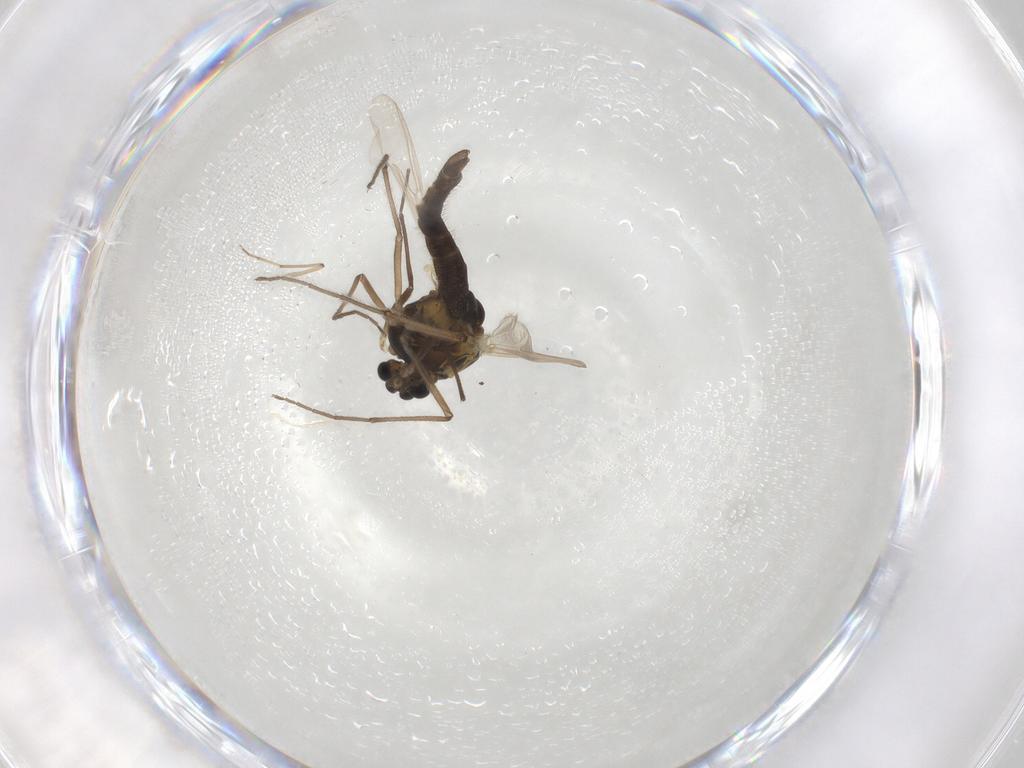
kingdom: Animalia
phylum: Arthropoda
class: Insecta
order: Diptera
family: Chironomidae
